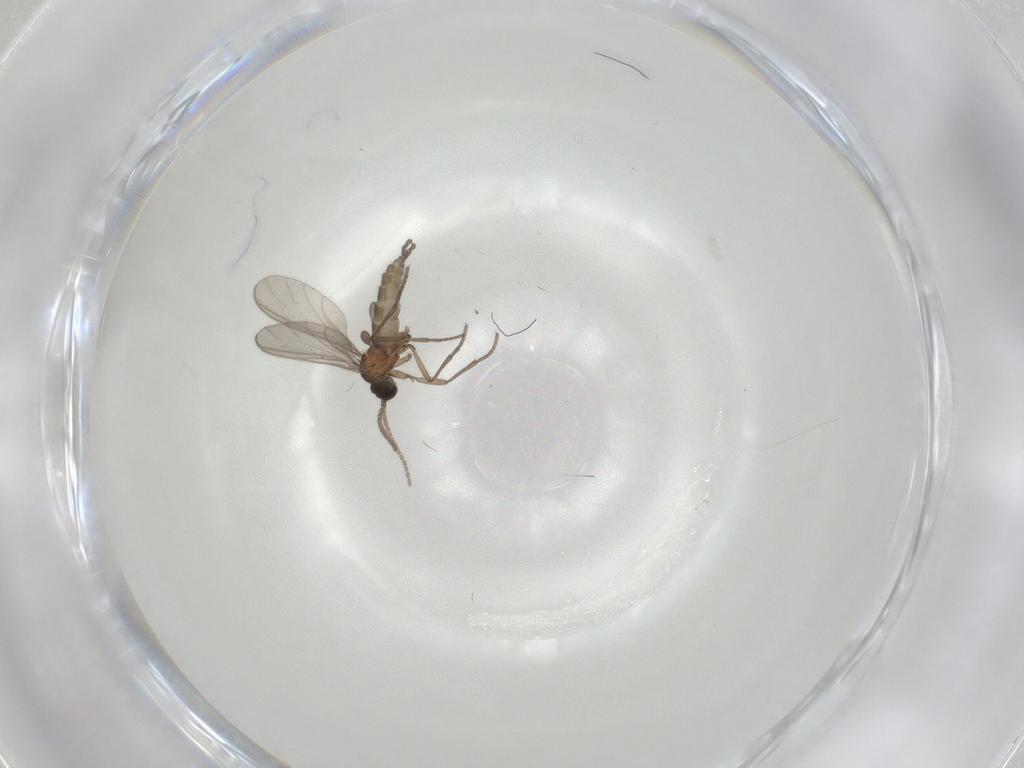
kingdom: Animalia
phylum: Arthropoda
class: Insecta
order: Diptera
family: Sciaridae
